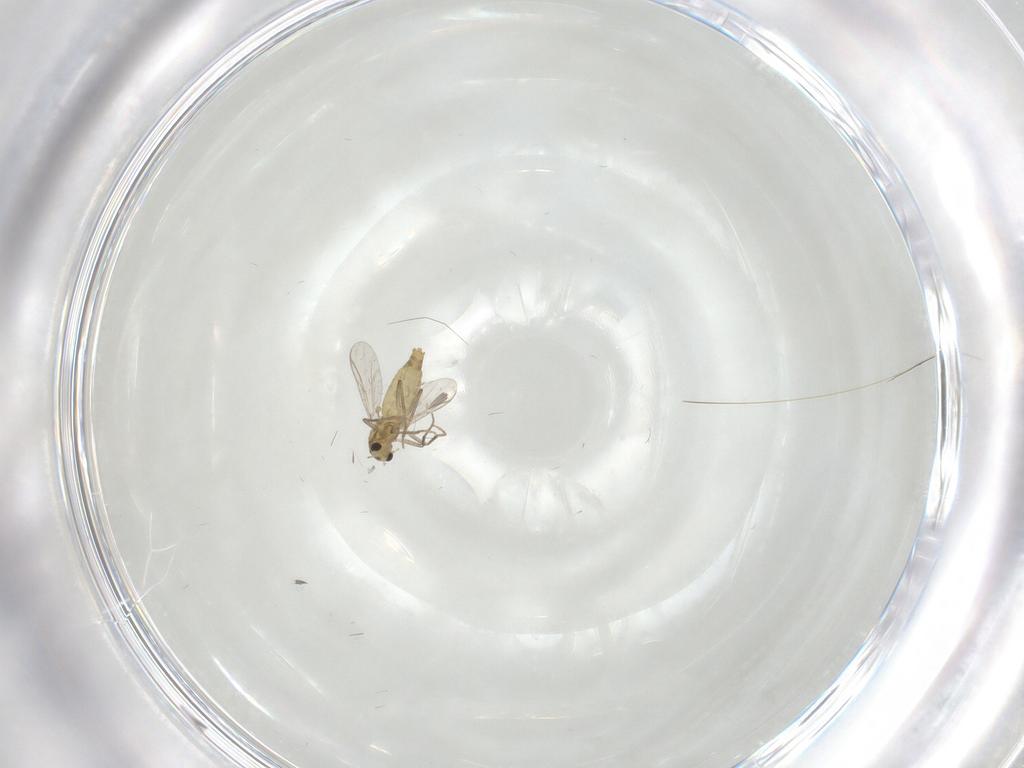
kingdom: Animalia
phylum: Arthropoda
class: Insecta
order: Diptera
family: Chironomidae
